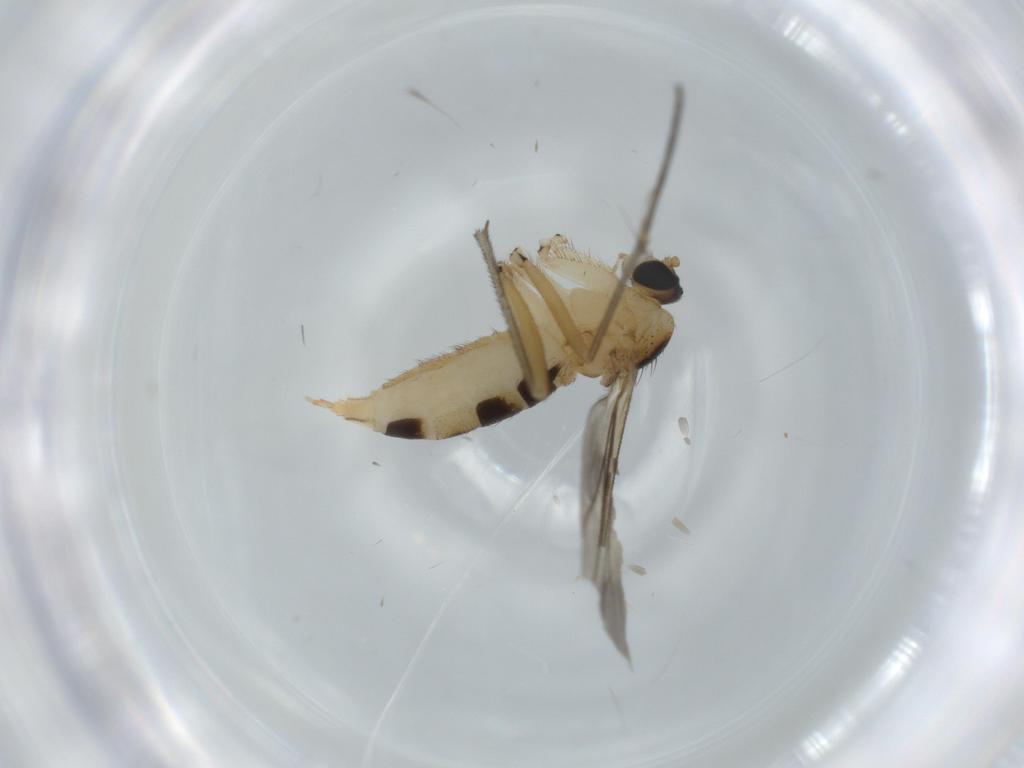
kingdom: Animalia
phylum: Arthropoda
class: Insecta
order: Diptera
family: Sciaridae
